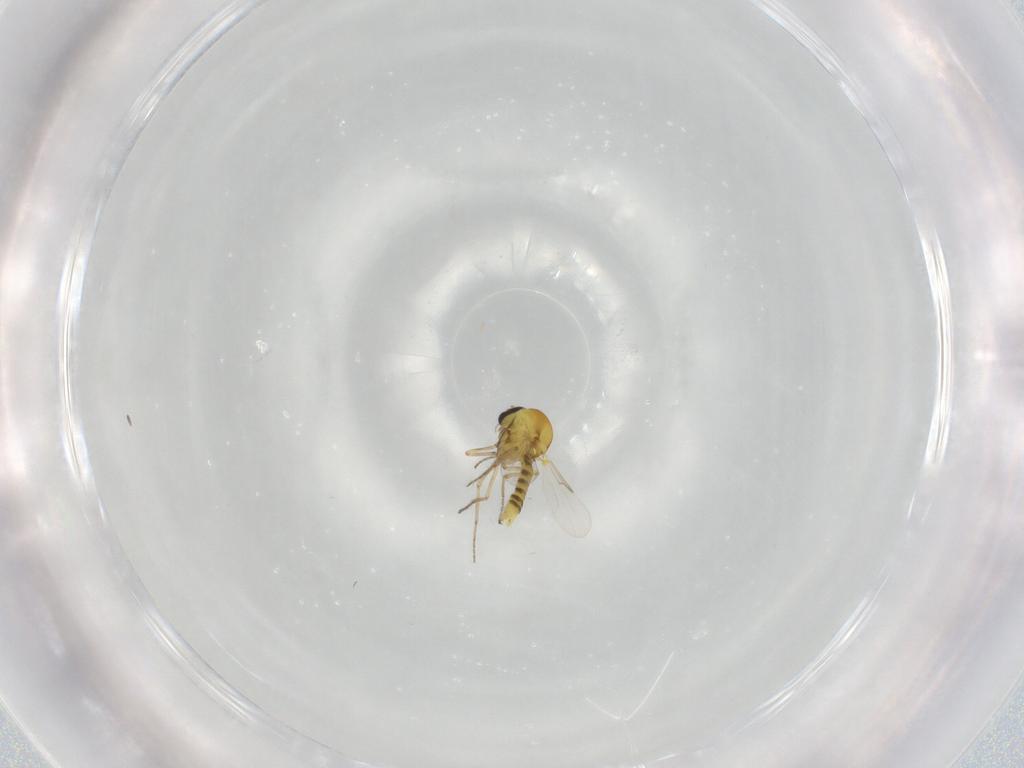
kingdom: Animalia
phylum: Arthropoda
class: Insecta
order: Diptera
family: Ceratopogonidae
